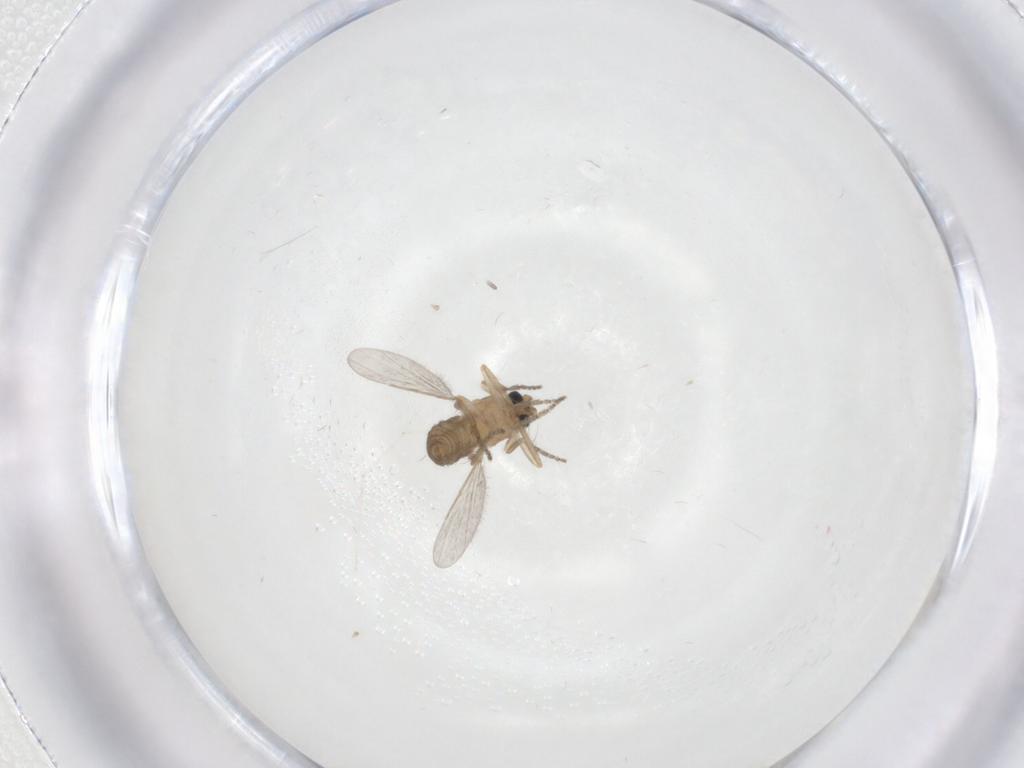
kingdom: Animalia
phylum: Arthropoda
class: Insecta
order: Diptera
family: Ceratopogonidae
